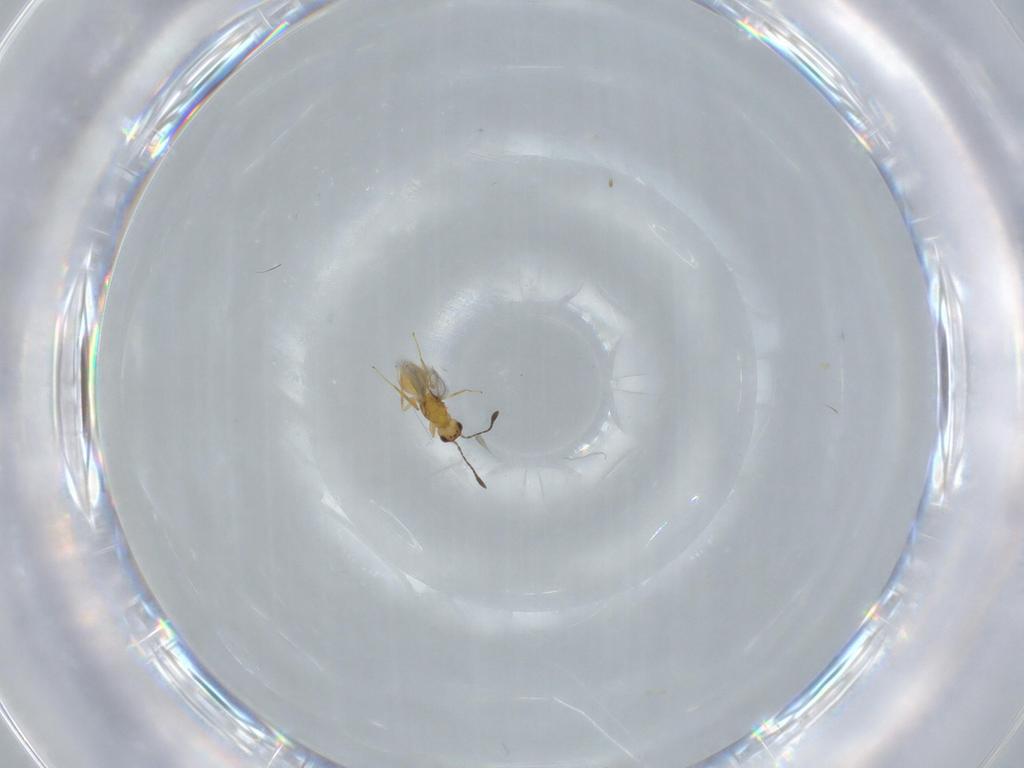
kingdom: Animalia
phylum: Arthropoda
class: Insecta
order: Hymenoptera
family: Mymaridae
